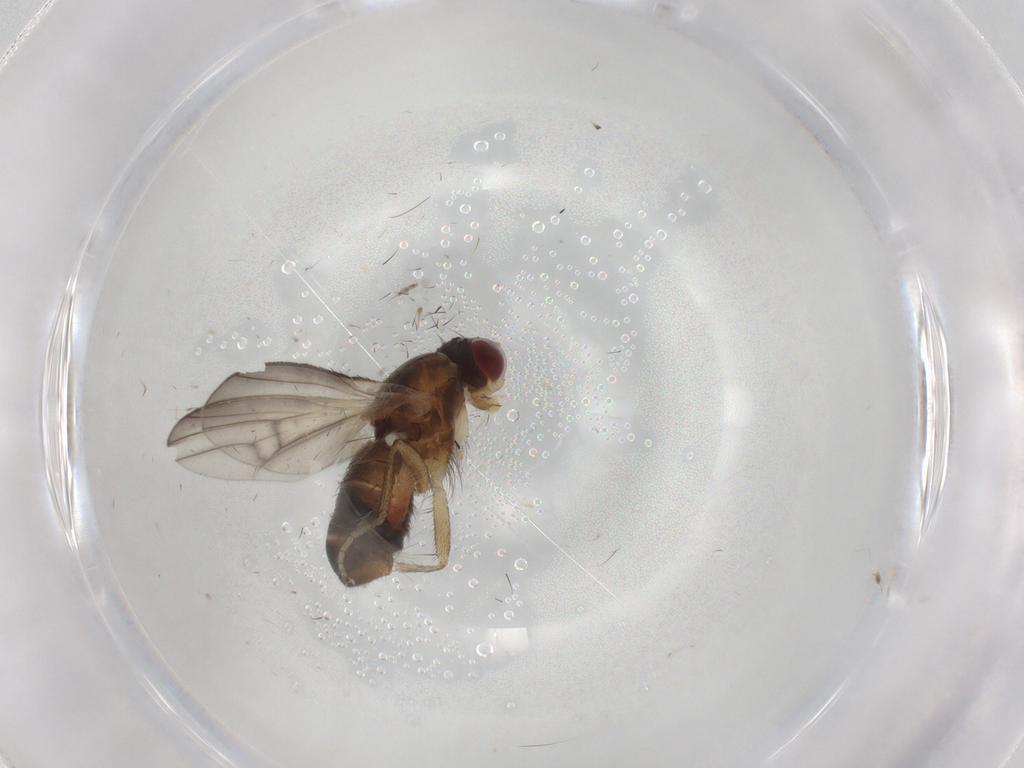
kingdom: Animalia
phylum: Arthropoda
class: Insecta
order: Diptera
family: Heleomyzidae
